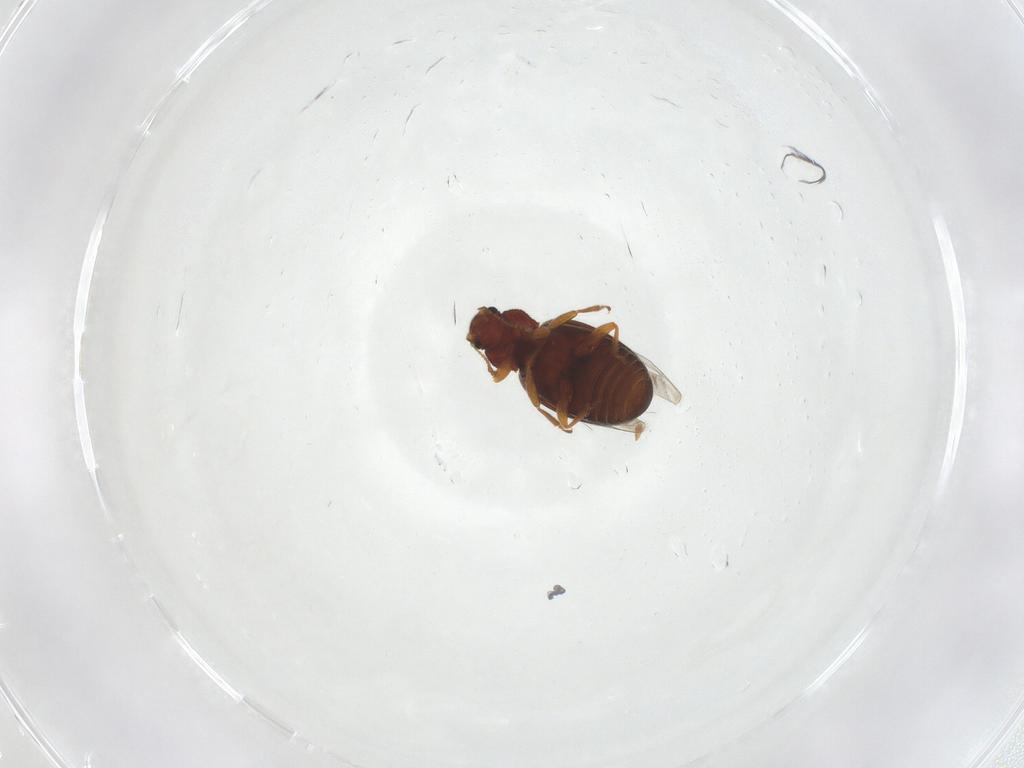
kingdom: Animalia
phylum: Arthropoda
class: Insecta
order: Coleoptera
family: Latridiidae
